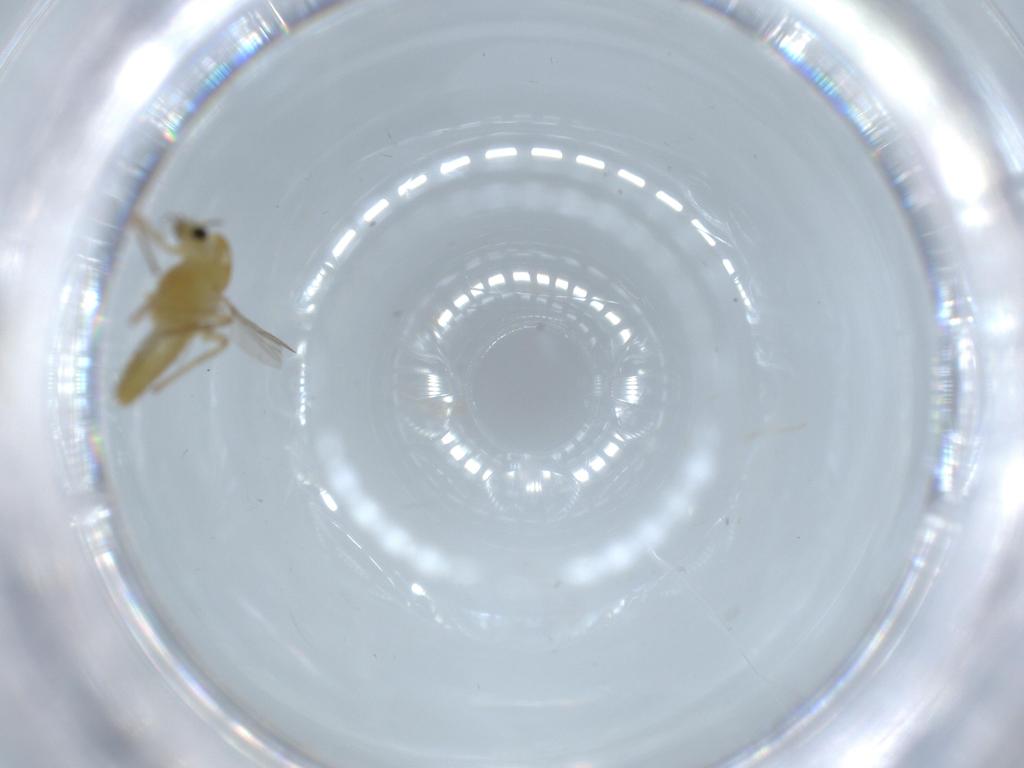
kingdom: Animalia
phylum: Arthropoda
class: Insecta
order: Diptera
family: Chironomidae
